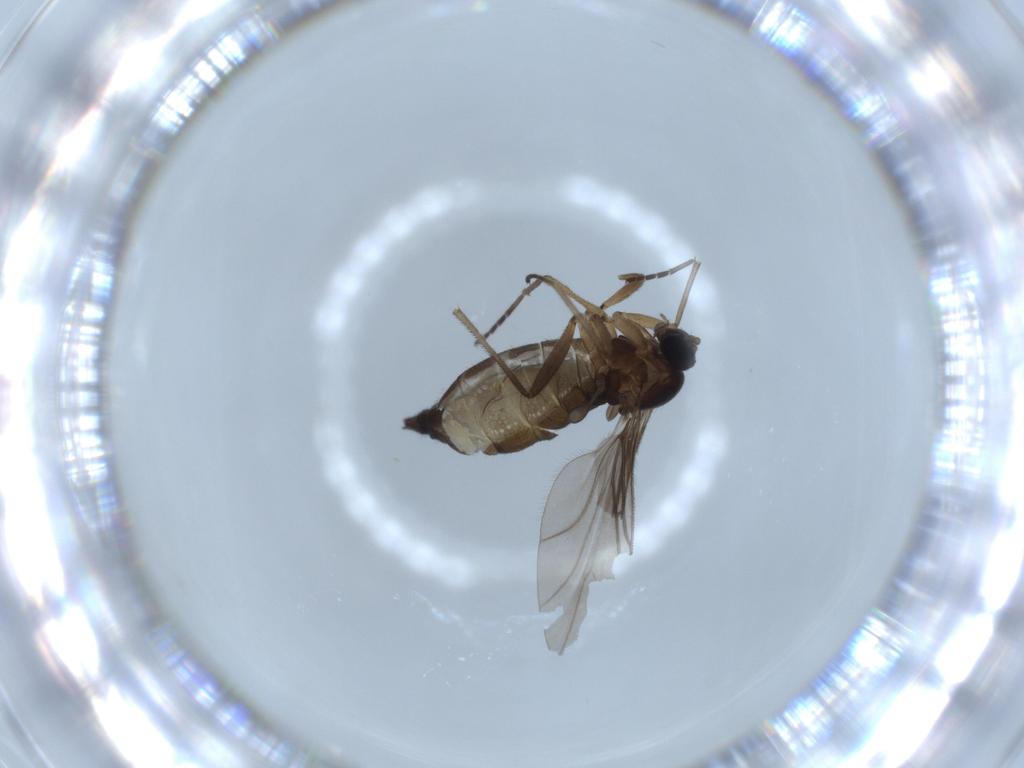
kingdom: Animalia
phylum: Arthropoda
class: Insecta
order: Diptera
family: Sciaridae
